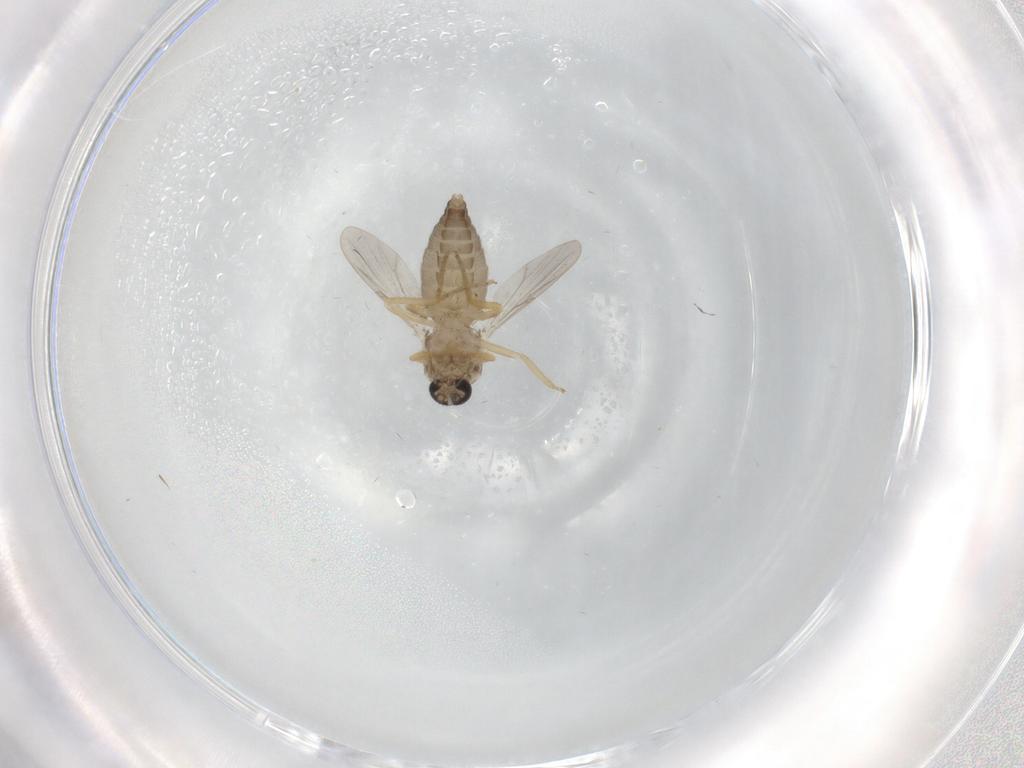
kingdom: Animalia
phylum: Arthropoda
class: Insecta
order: Diptera
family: Ceratopogonidae
